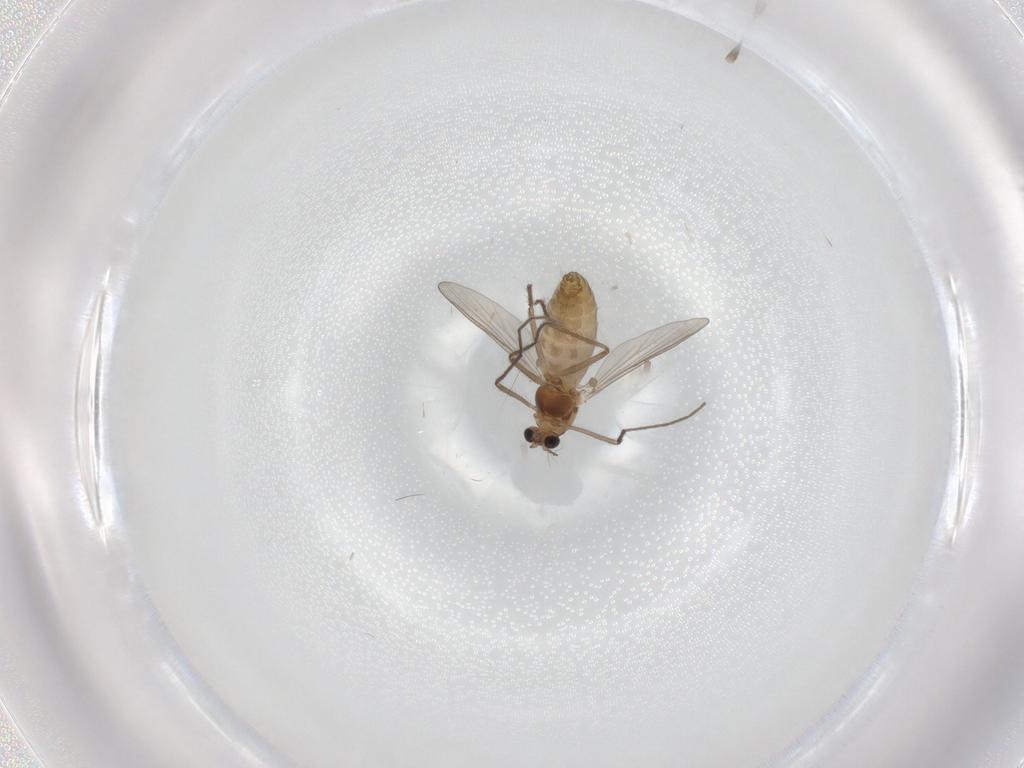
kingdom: Animalia
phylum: Arthropoda
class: Insecta
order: Diptera
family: Chironomidae
